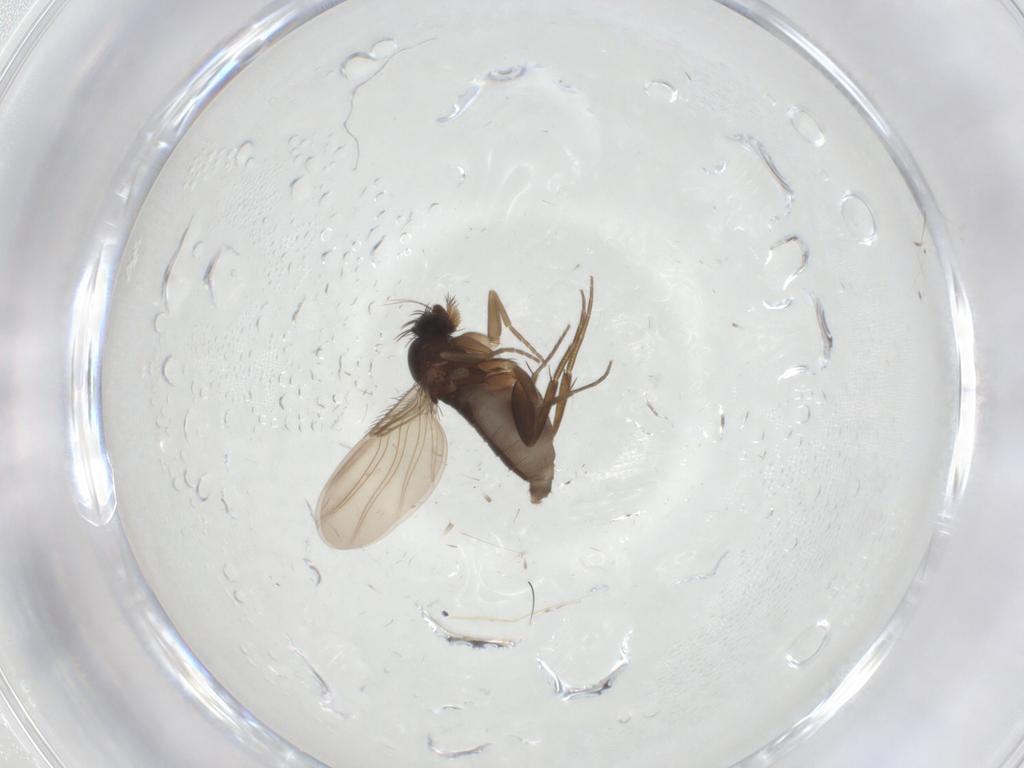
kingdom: Animalia
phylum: Arthropoda
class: Insecta
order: Diptera
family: Phoridae
